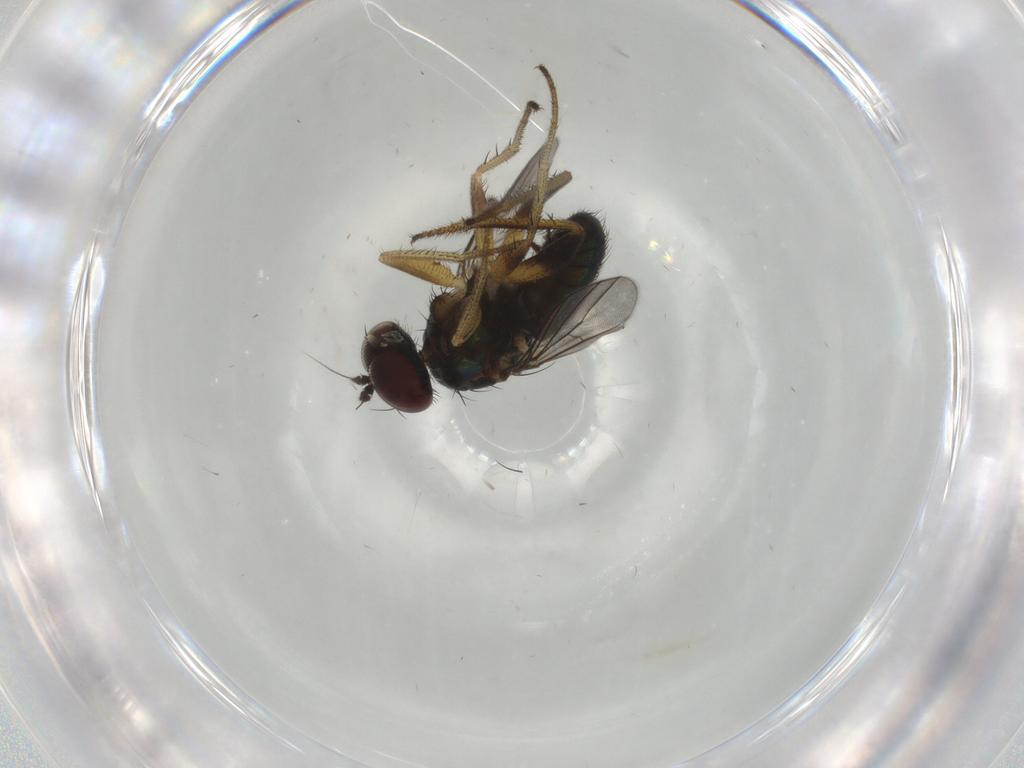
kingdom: Animalia
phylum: Arthropoda
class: Insecta
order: Diptera
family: Dolichopodidae
